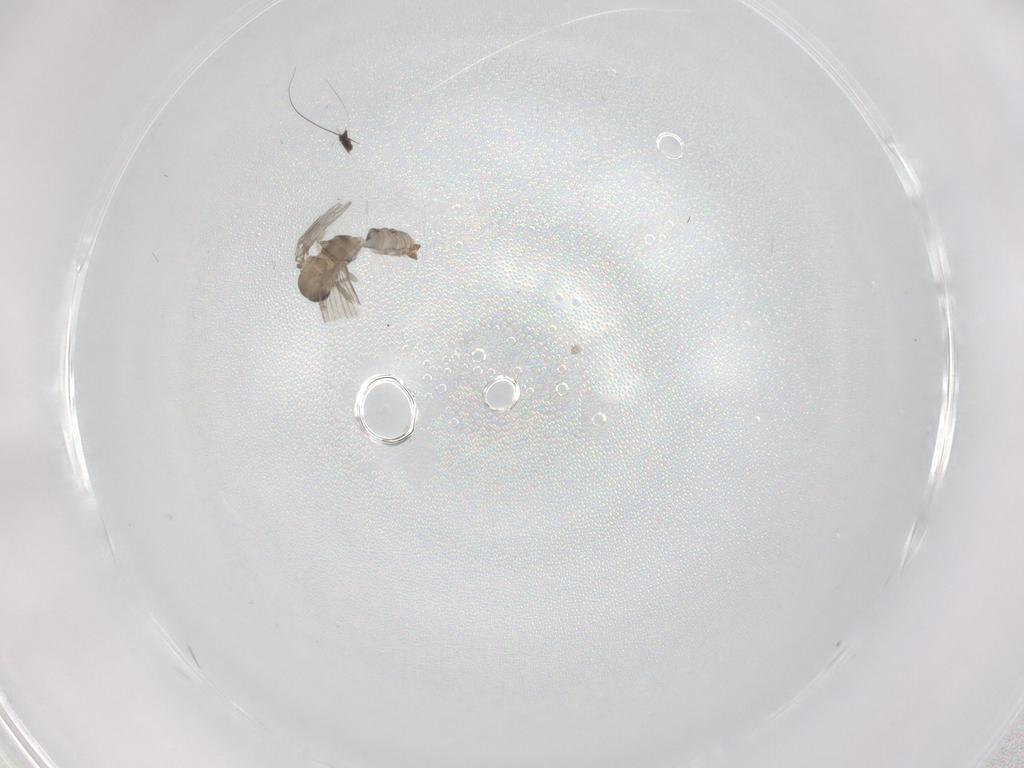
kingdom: Animalia
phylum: Arthropoda
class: Insecta
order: Diptera
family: Psychodidae
